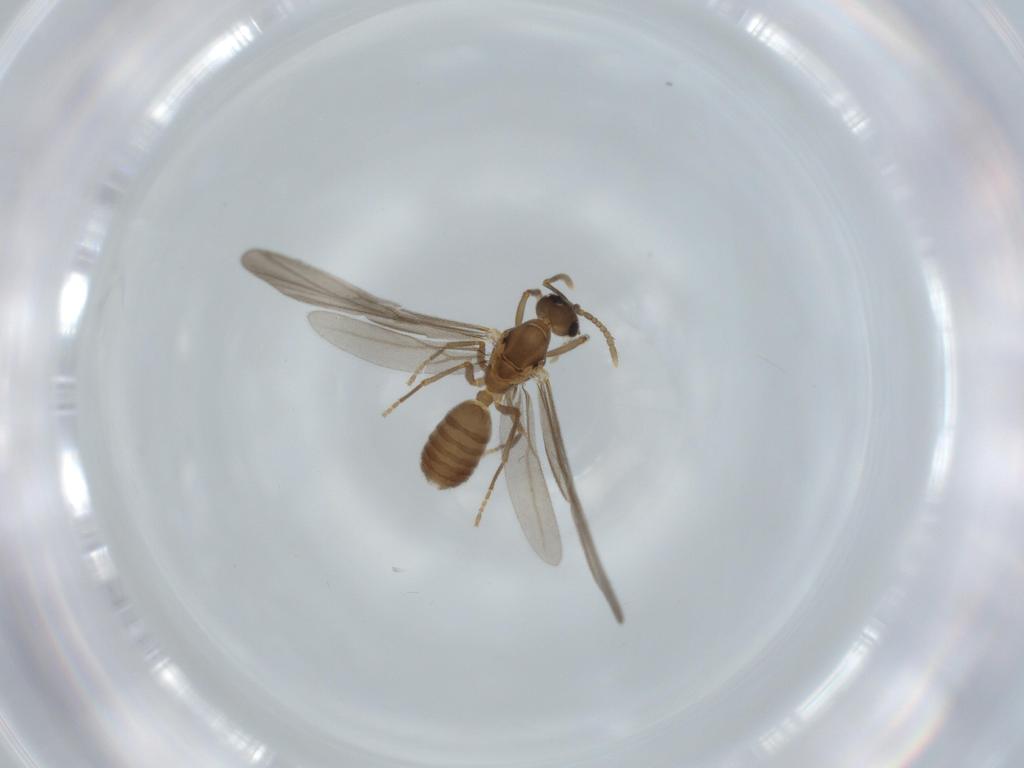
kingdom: Animalia
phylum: Arthropoda
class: Insecta
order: Hymenoptera
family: Formicidae
